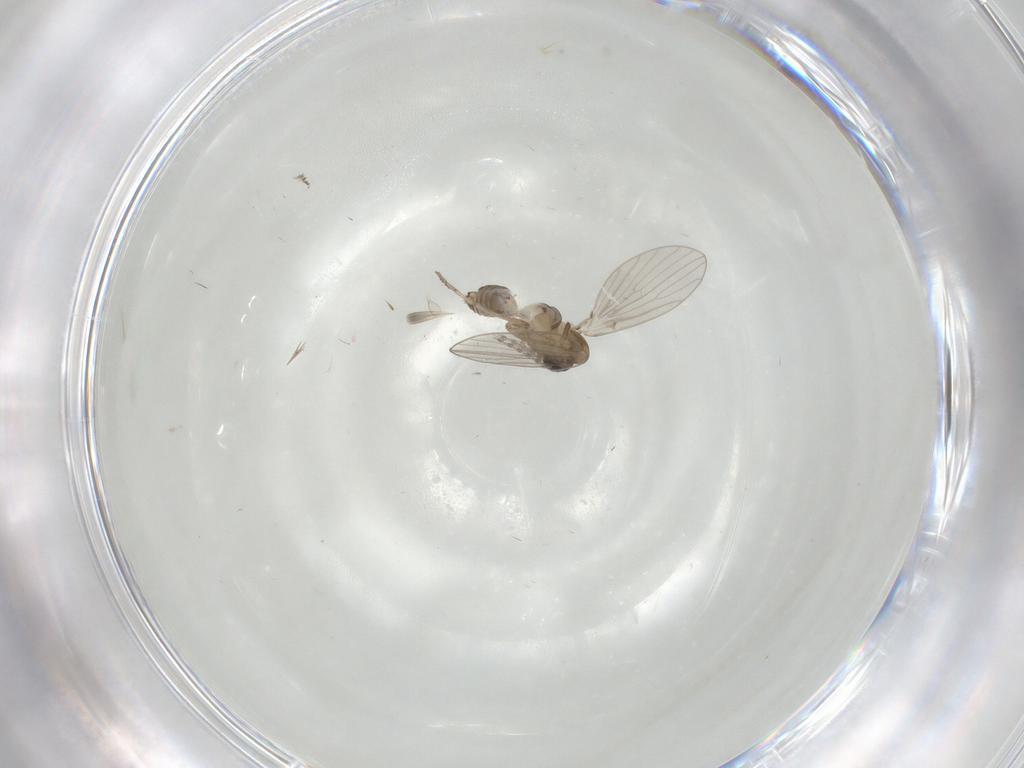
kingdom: Animalia
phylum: Arthropoda
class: Insecta
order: Diptera
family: Psychodidae
